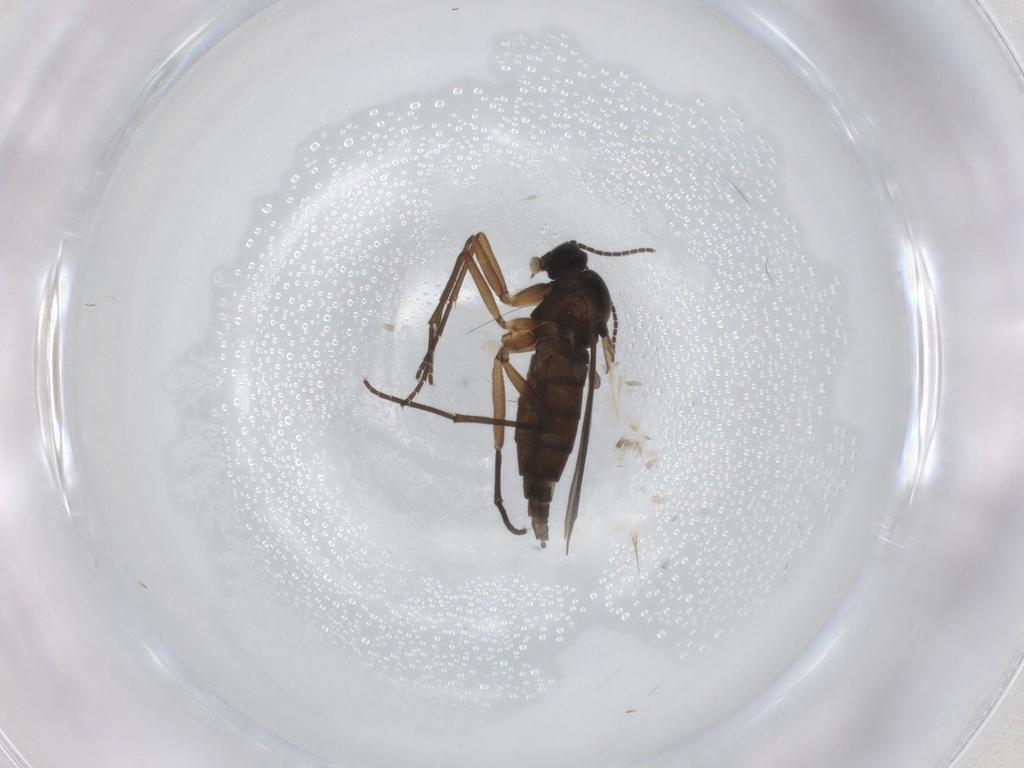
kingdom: Animalia
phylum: Arthropoda
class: Insecta
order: Diptera
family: Sciaridae
